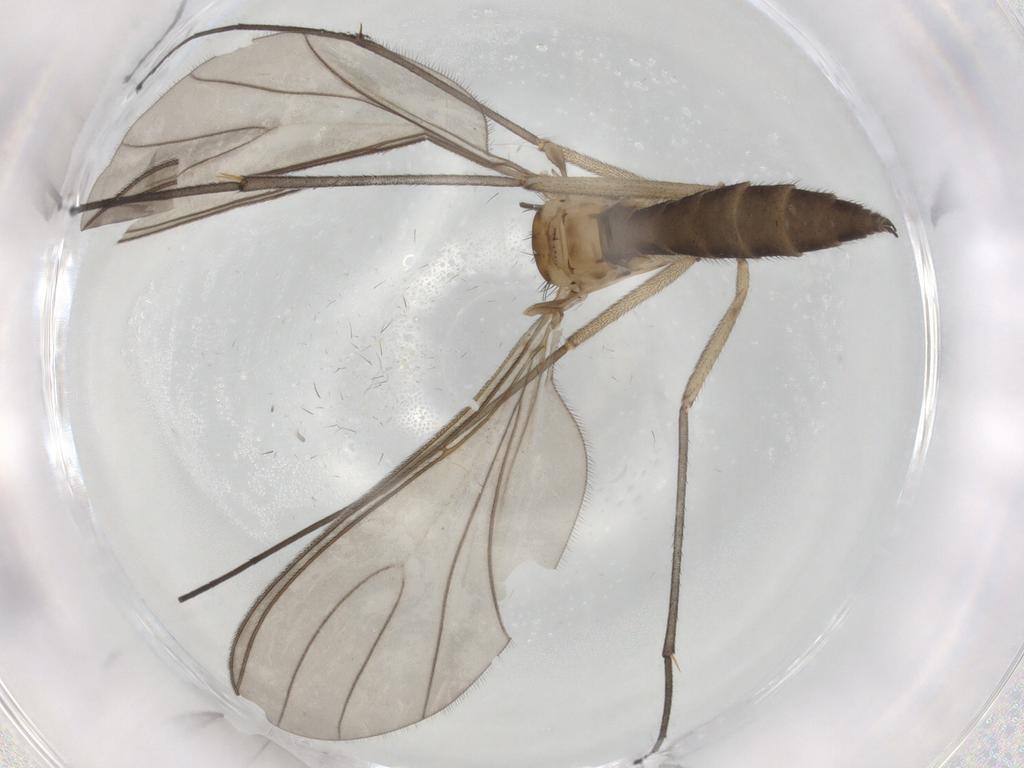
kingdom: Animalia
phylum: Arthropoda
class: Insecta
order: Diptera
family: Sciaridae
